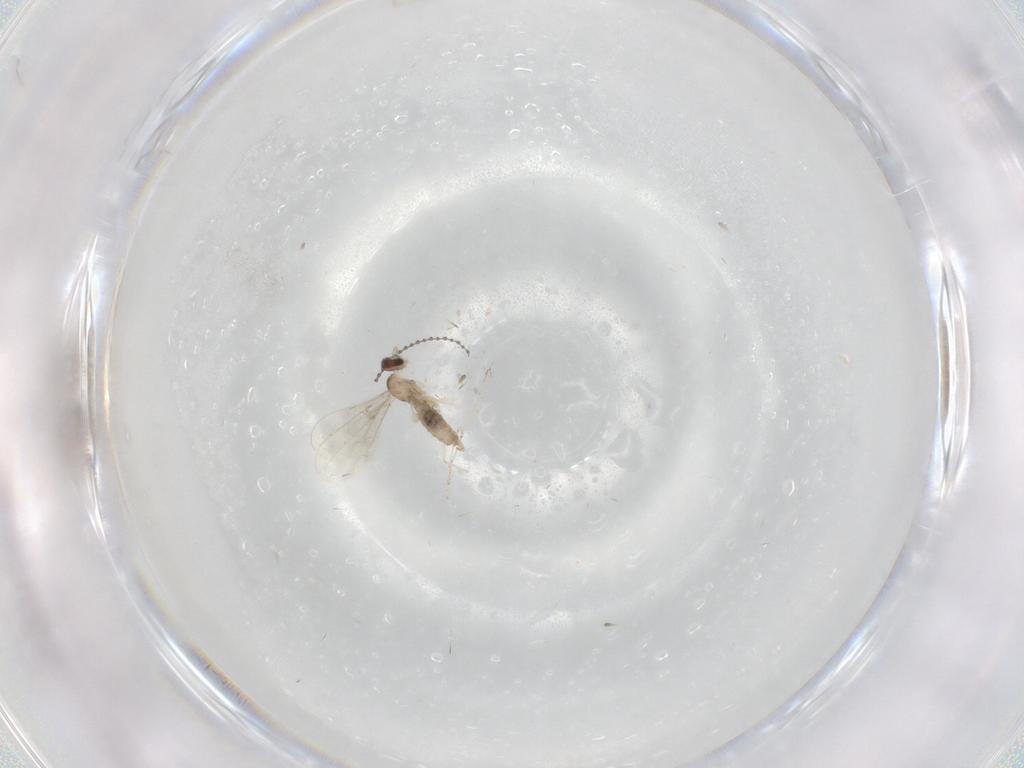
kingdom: Animalia
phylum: Arthropoda
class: Insecta
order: Diptera
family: Cecidomyiidae
